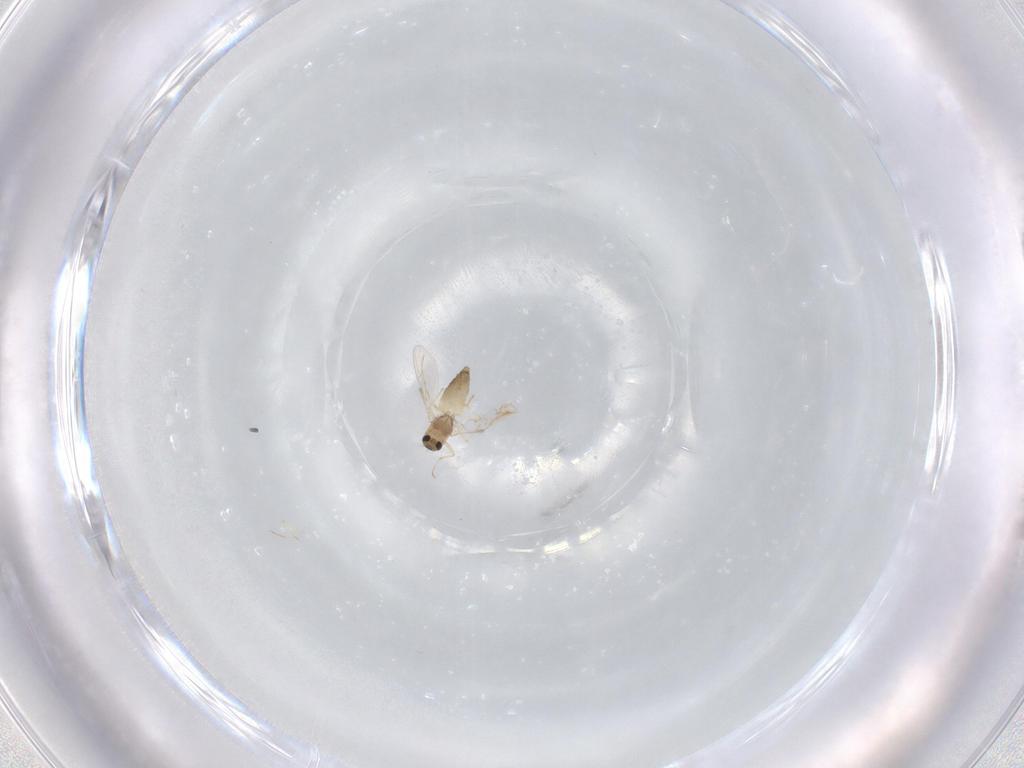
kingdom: Animalia
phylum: Arthropoda
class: Insecta
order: Diptera
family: Chironomidae
